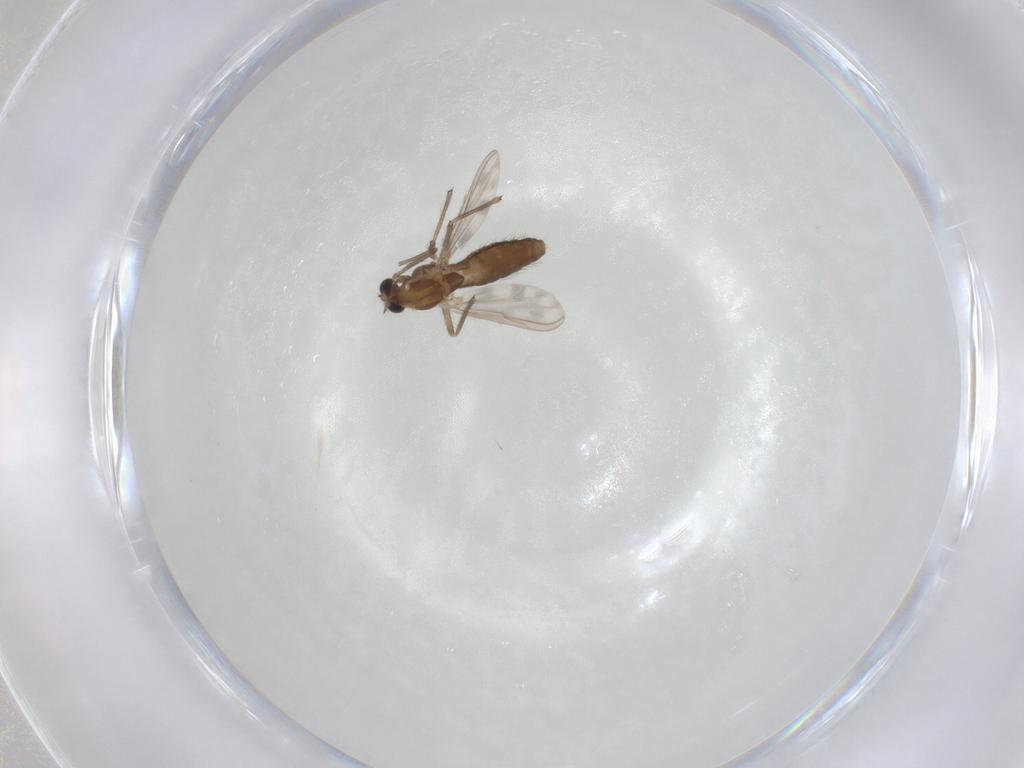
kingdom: Animalia
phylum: Arthropoda
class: Insecta
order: Diptera
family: Chironomidae
